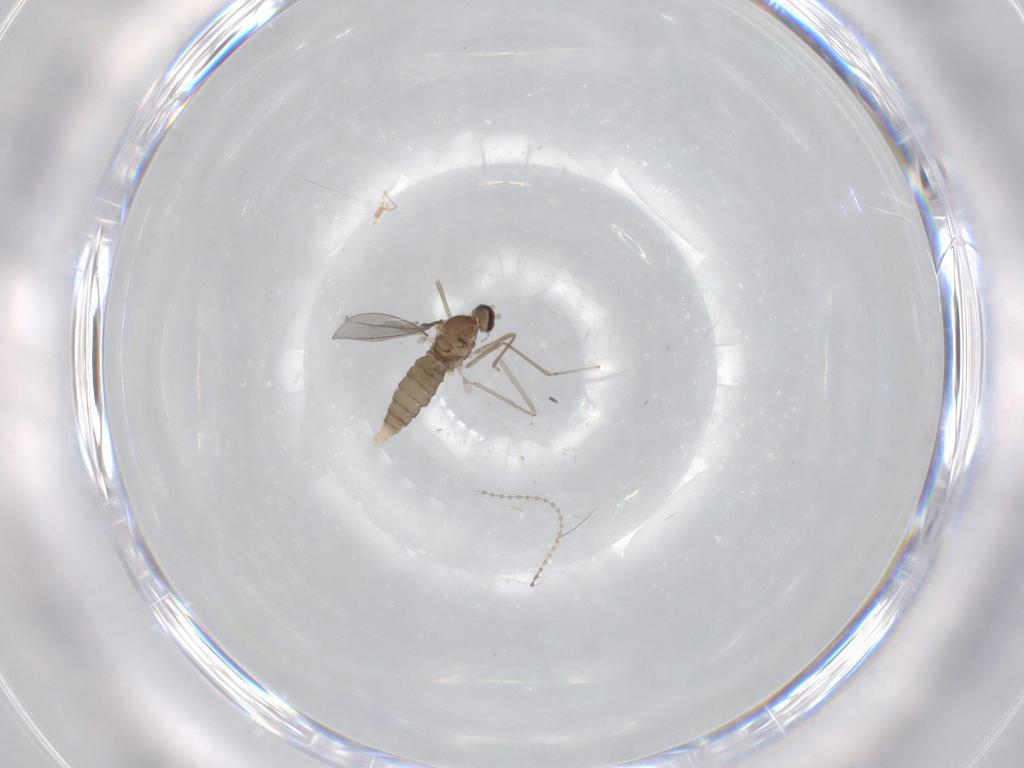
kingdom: Animalia
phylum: Arthropoda
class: Insecta
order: Diptera
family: Cecidomyiidae
